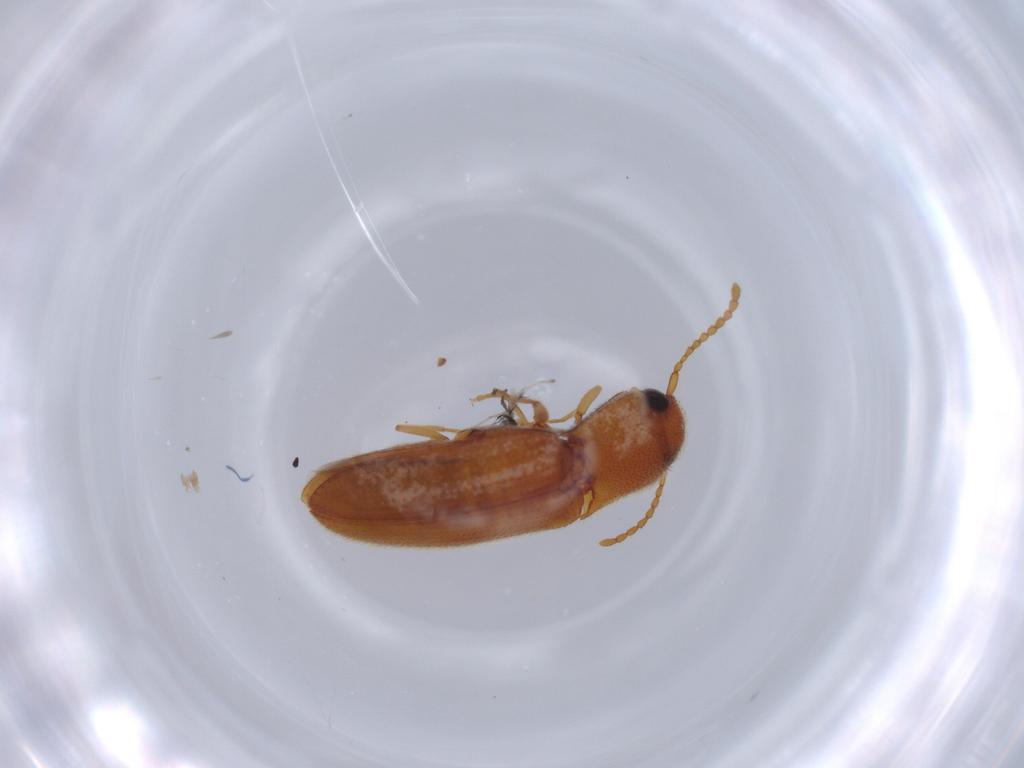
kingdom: Animalia
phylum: Arthropoda
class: Insecta
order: Coleoptera
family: Elateridae
